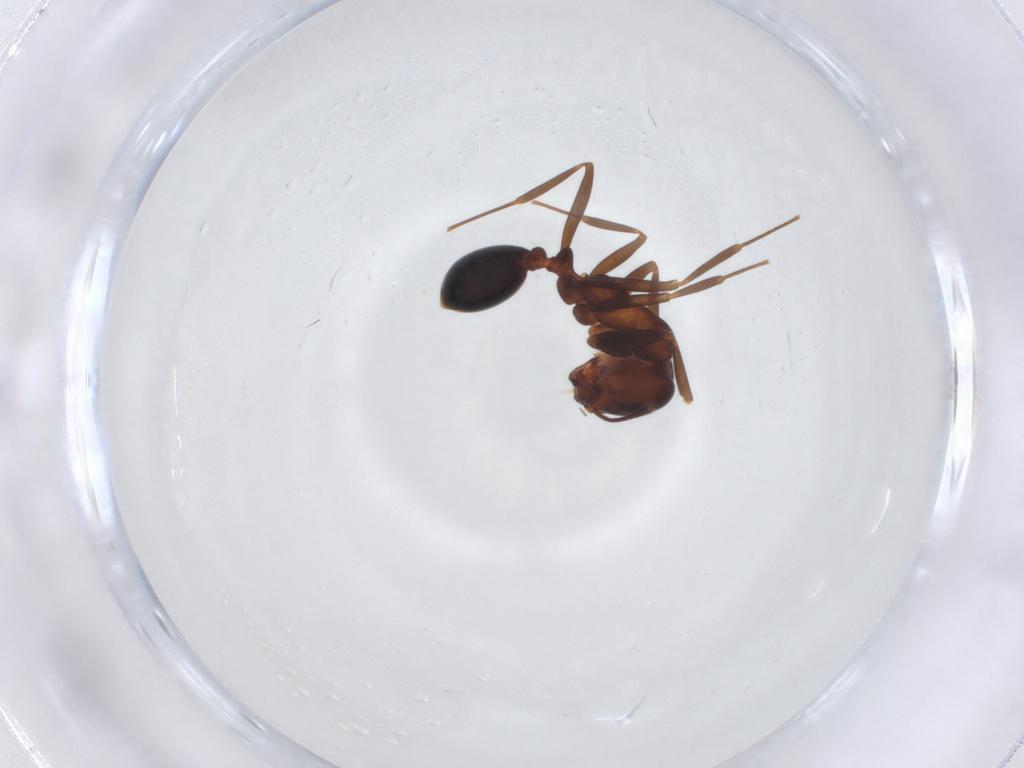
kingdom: Animalia
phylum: Arthropoda
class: Insecta
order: Hymenoptera
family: Formicidae
